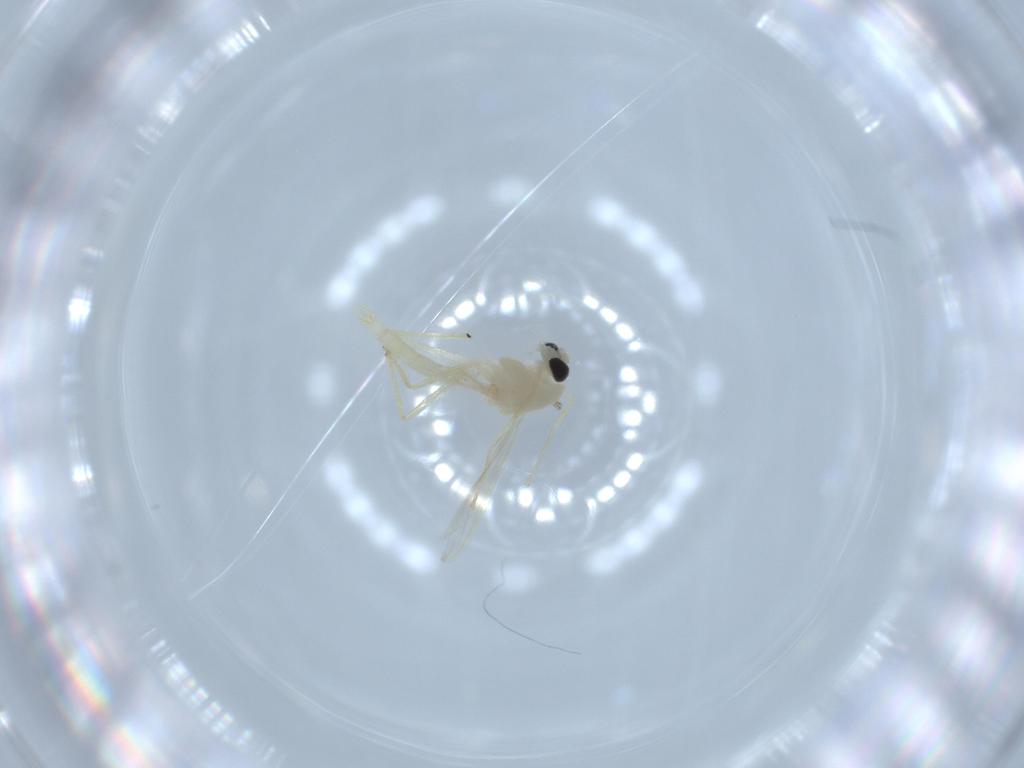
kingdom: Animalia
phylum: Arthropoda
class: Insecta
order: Diptera
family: Chironomidae
